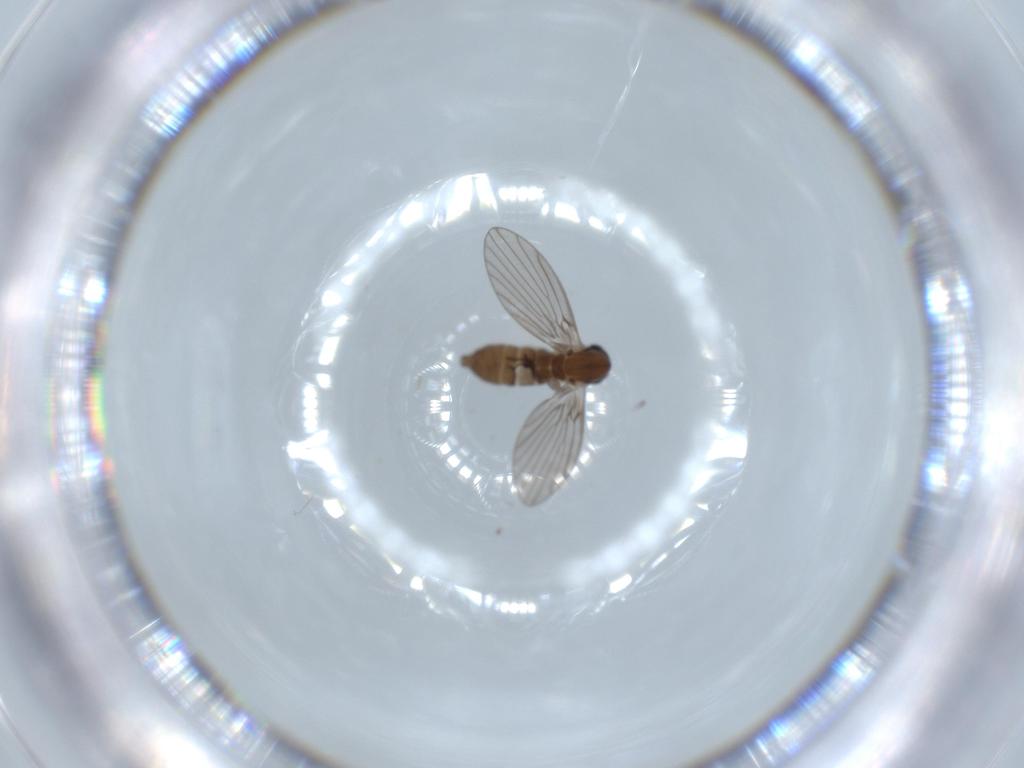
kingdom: Animalia
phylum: Arthropoda
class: Insecta
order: Diptera
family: Psychodidae
